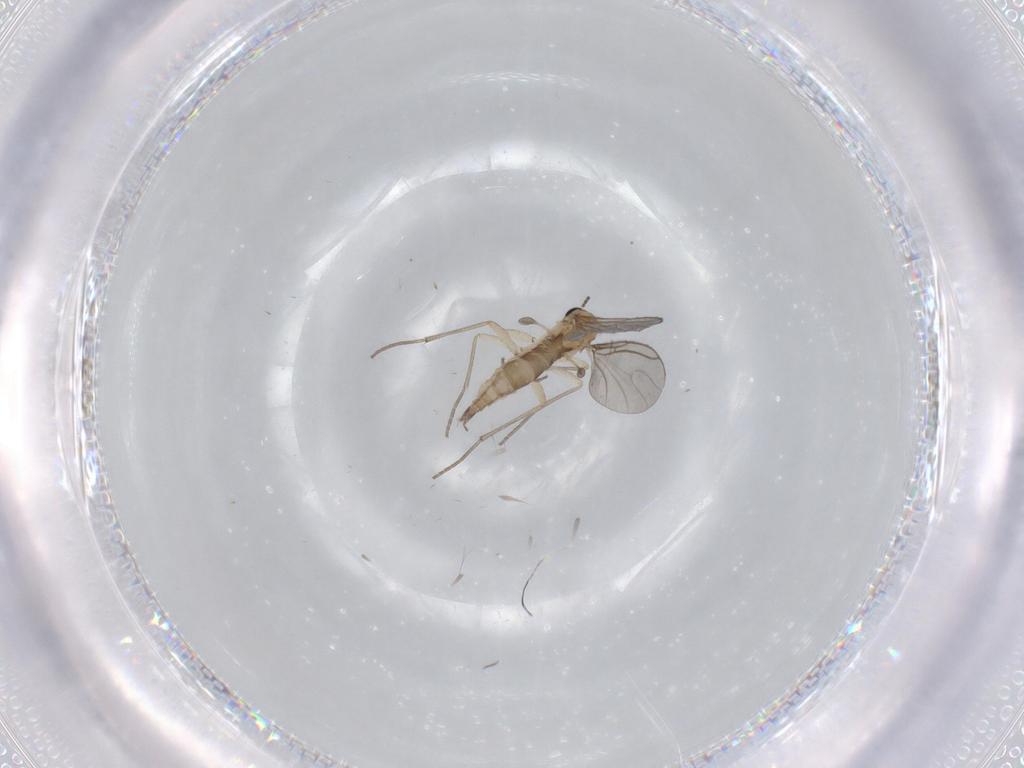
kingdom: Animalia
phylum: Arthropoda
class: Insecta
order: Diptera
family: Sciaridae
